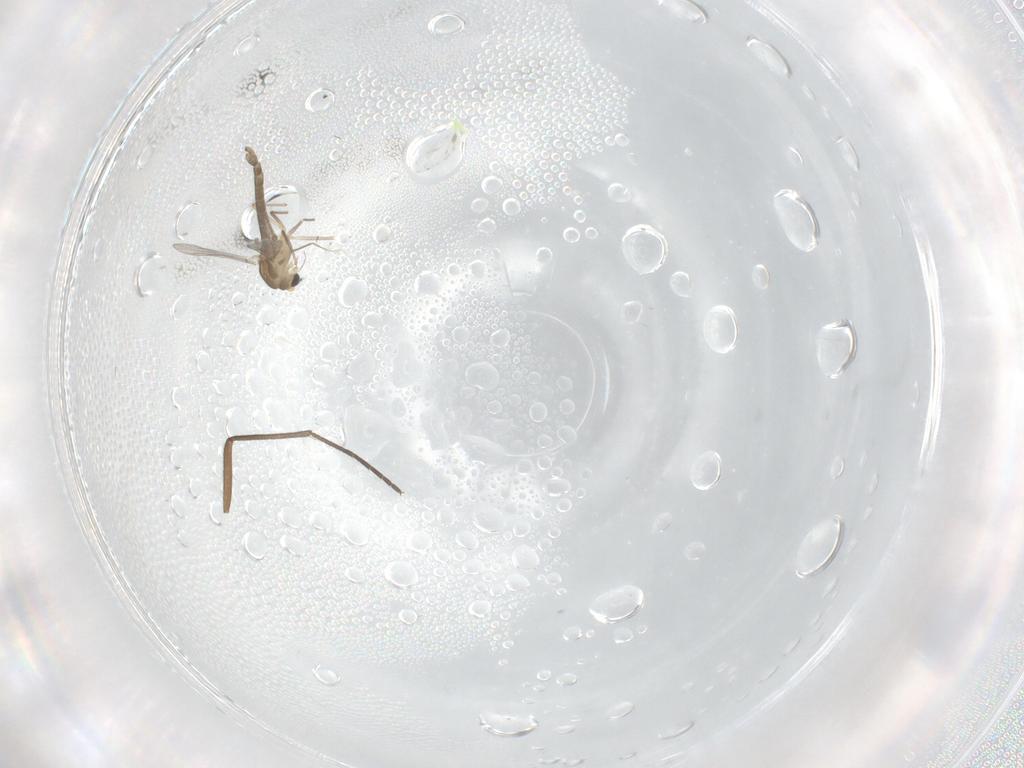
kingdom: Animalia
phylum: Arthropoda
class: Insecta
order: Diptera
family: Chironomidae
